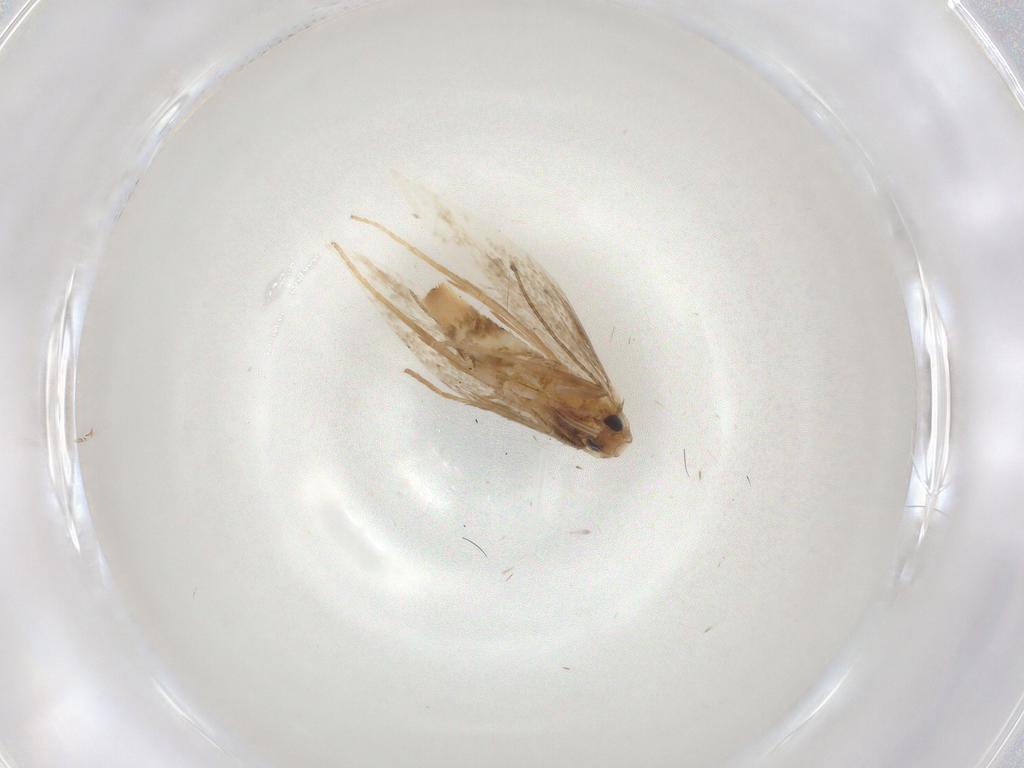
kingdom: Animalia
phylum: Arthropoda
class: Insecta
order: Lepidoptera
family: Tischeriidae
